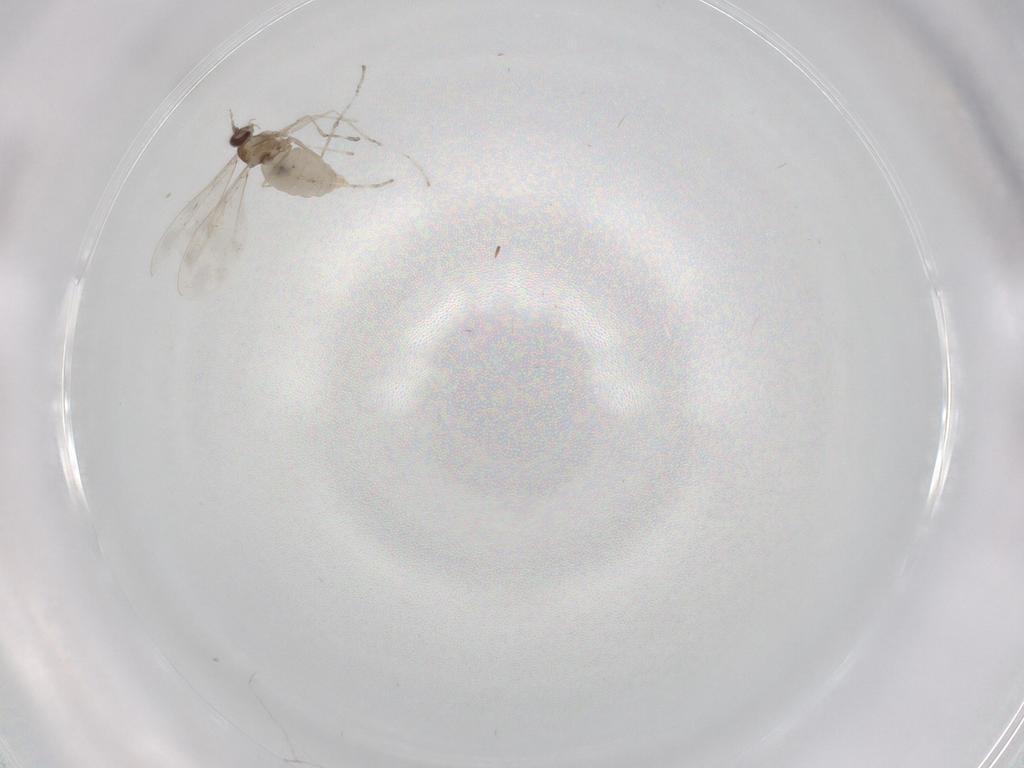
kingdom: Animalia
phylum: Arthropoda
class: Insecta
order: Diptera
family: Cecidomyiidae
